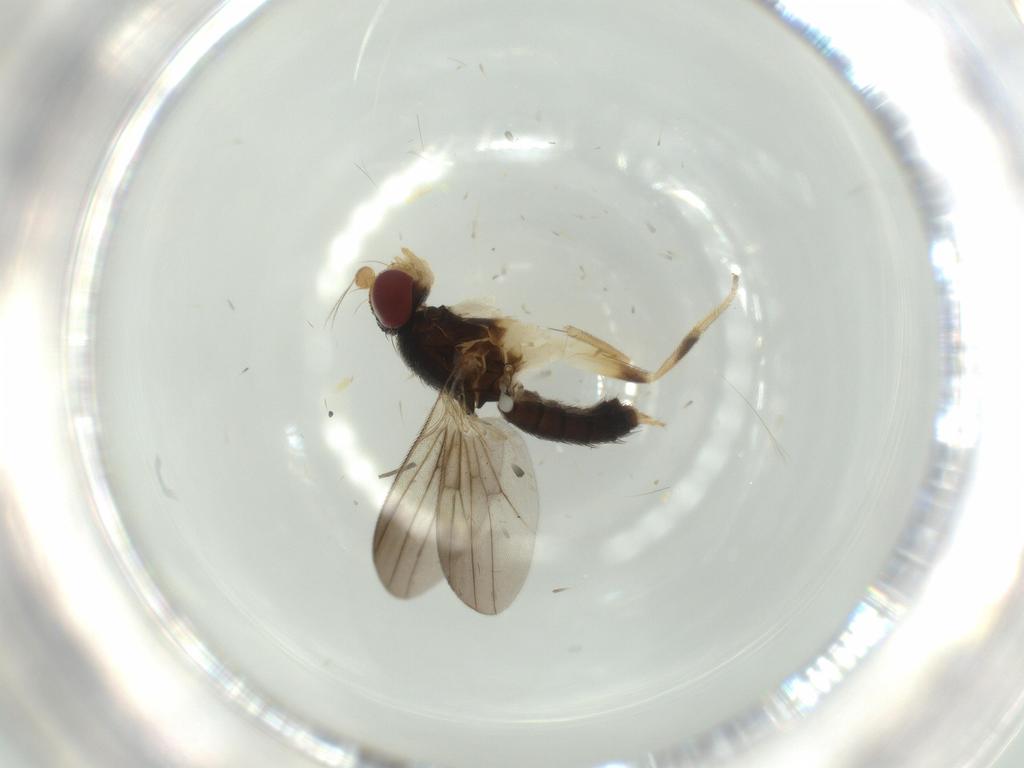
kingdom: Animalia
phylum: Arthropoda
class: Insecta
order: Diptera
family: Clusiidae
